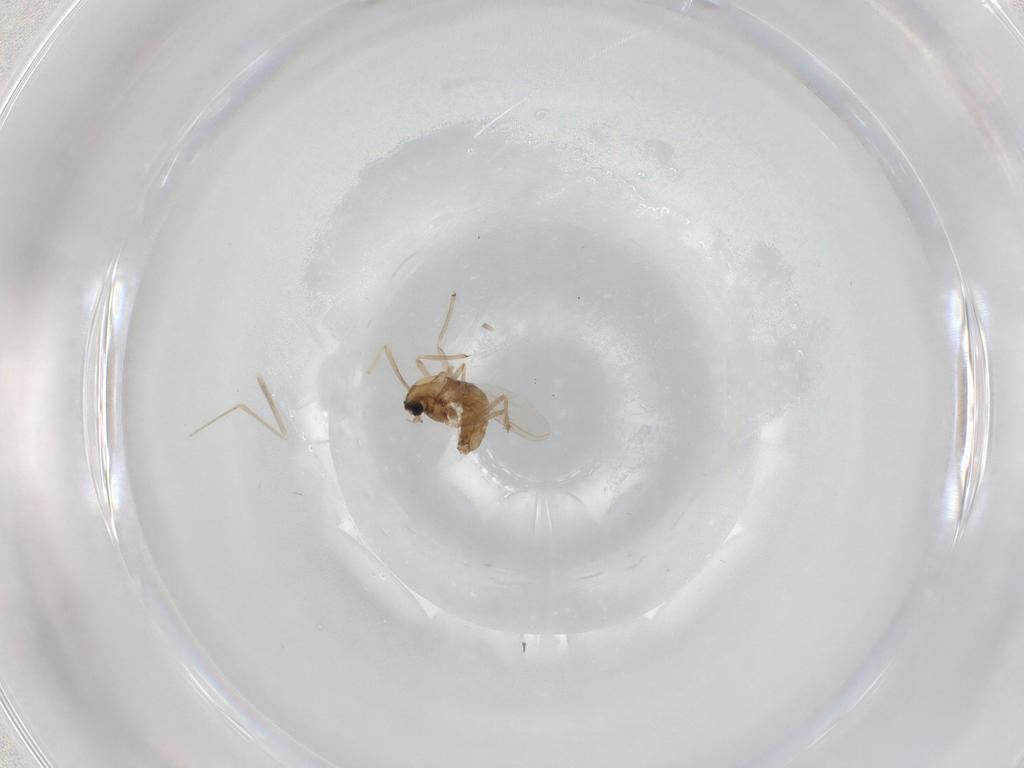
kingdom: Animalia
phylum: Arthropoda
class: Insecta
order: Diptera
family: Chironomidae
